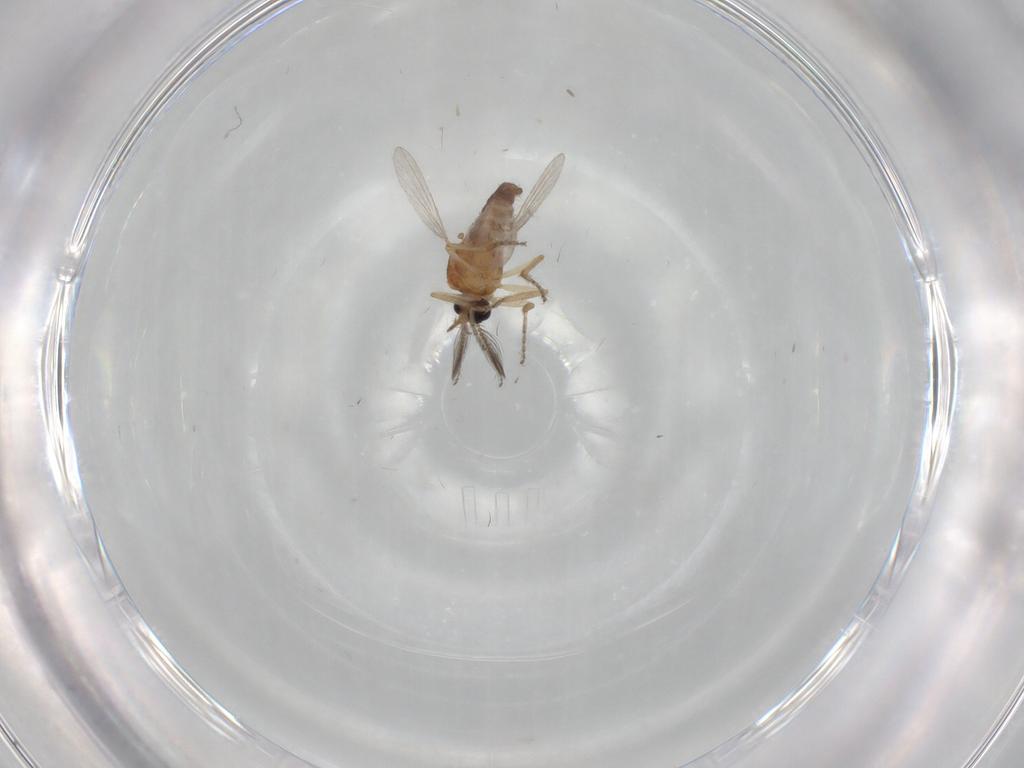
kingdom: Animalia
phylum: Arthropoda
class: Insecta
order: Diptera
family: Ceratopogonidae
